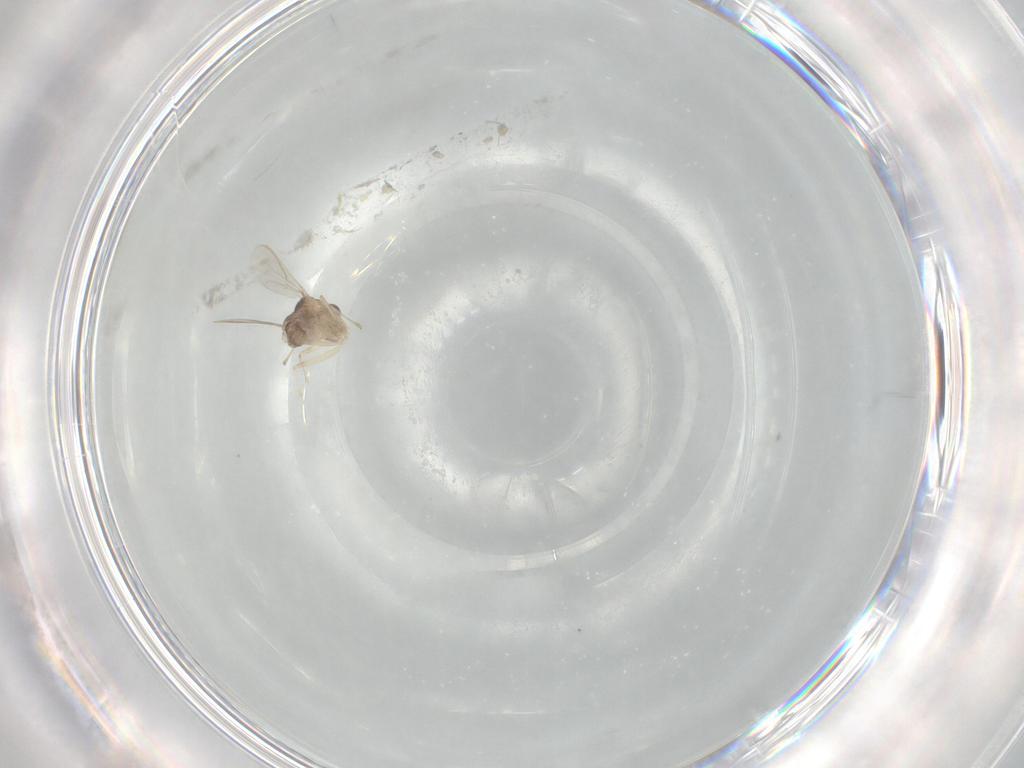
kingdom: Animalia
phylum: Arthropoda
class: Insecta
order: Diptera
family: Chironomidae
